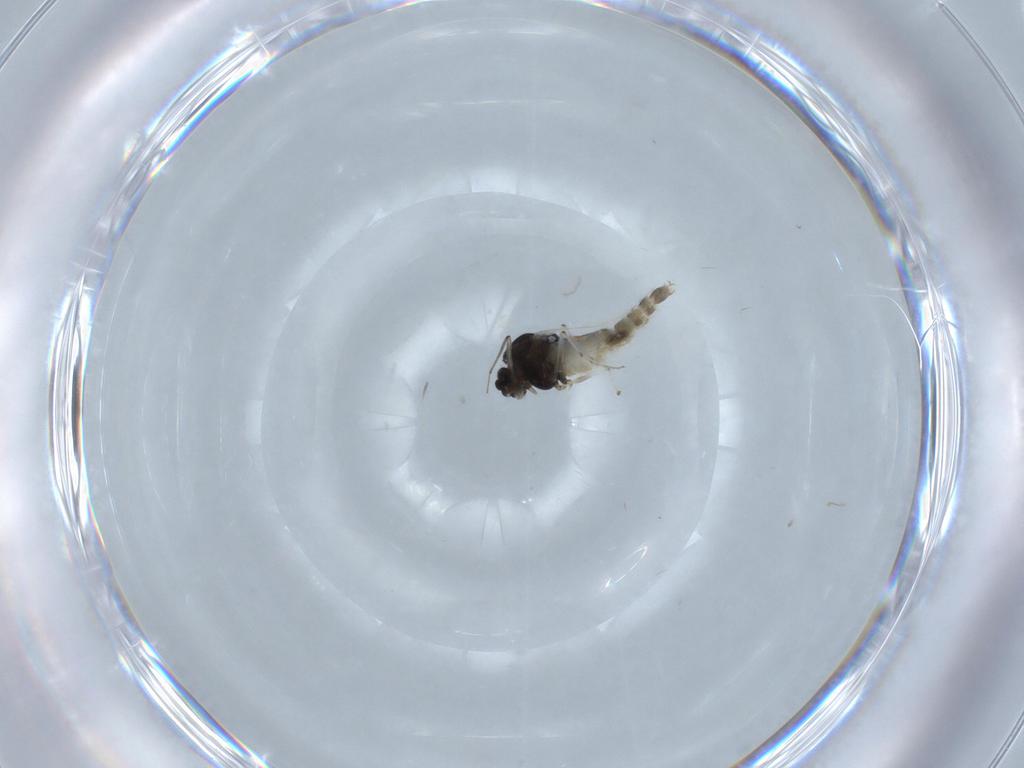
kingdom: Animalia
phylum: Arthropoda
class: Insecta
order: Diptera
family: Chironomidae
